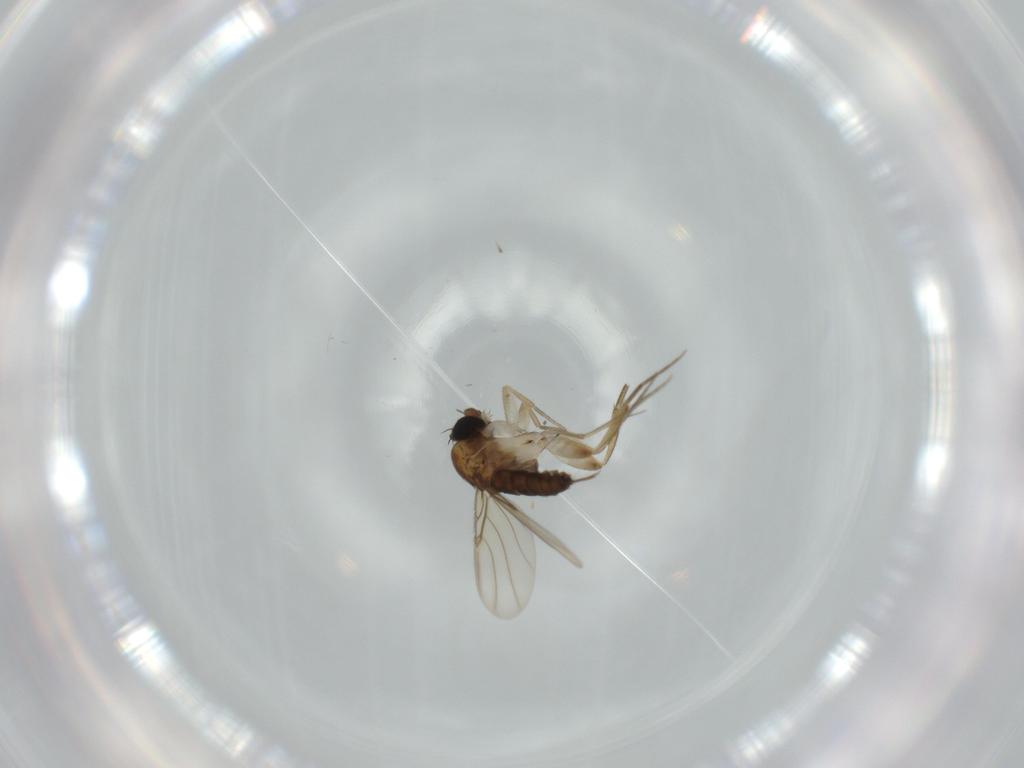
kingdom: Animalia
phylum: Arthropoda
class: Insecta
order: Diptera
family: Phoridae
